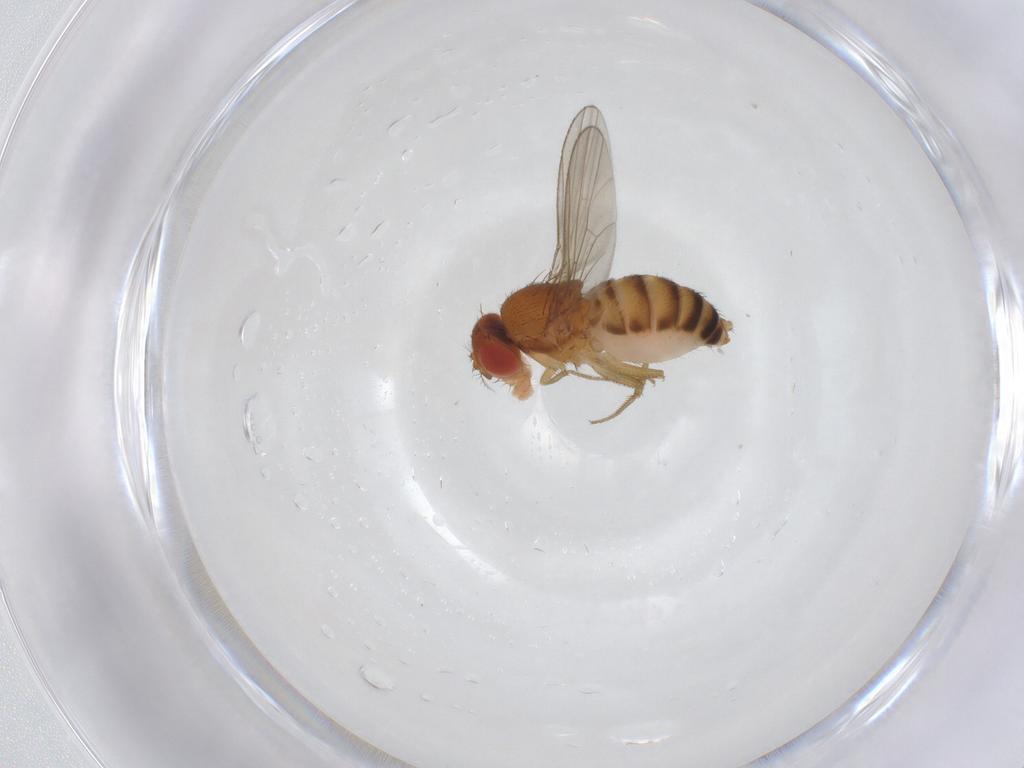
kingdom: Animalia
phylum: Arthropoda
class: Insecta
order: Diptera
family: Drosophilidae
